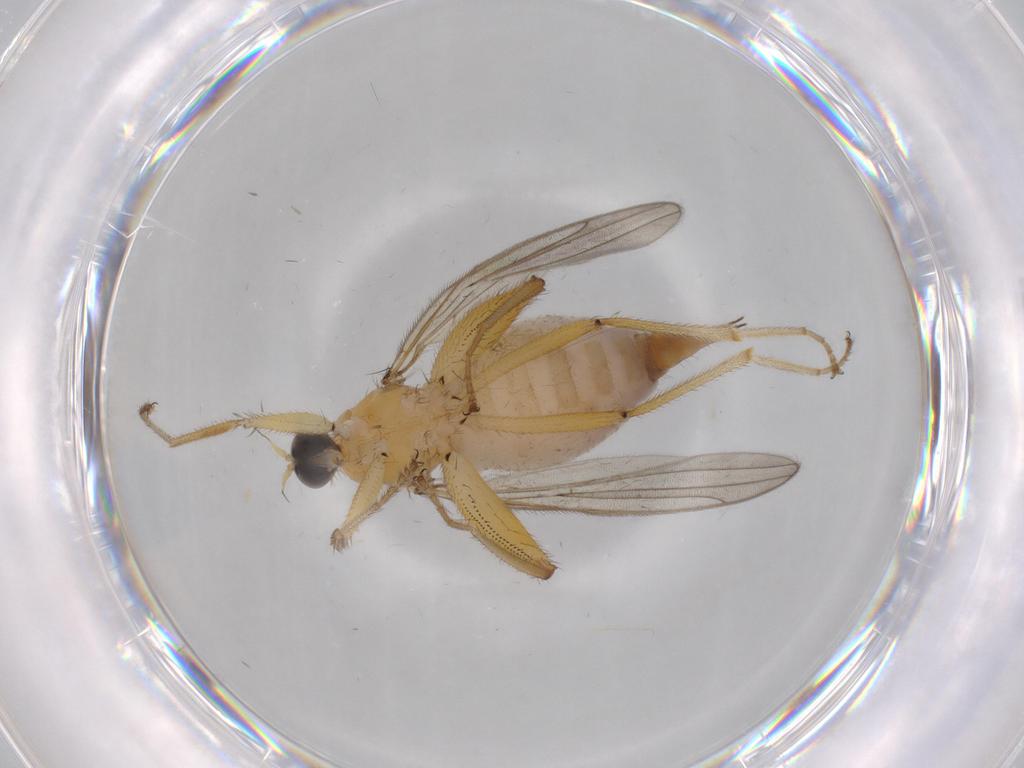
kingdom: Animalia
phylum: Arthropoda
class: Insecta
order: Diptera
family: Hybotidae
